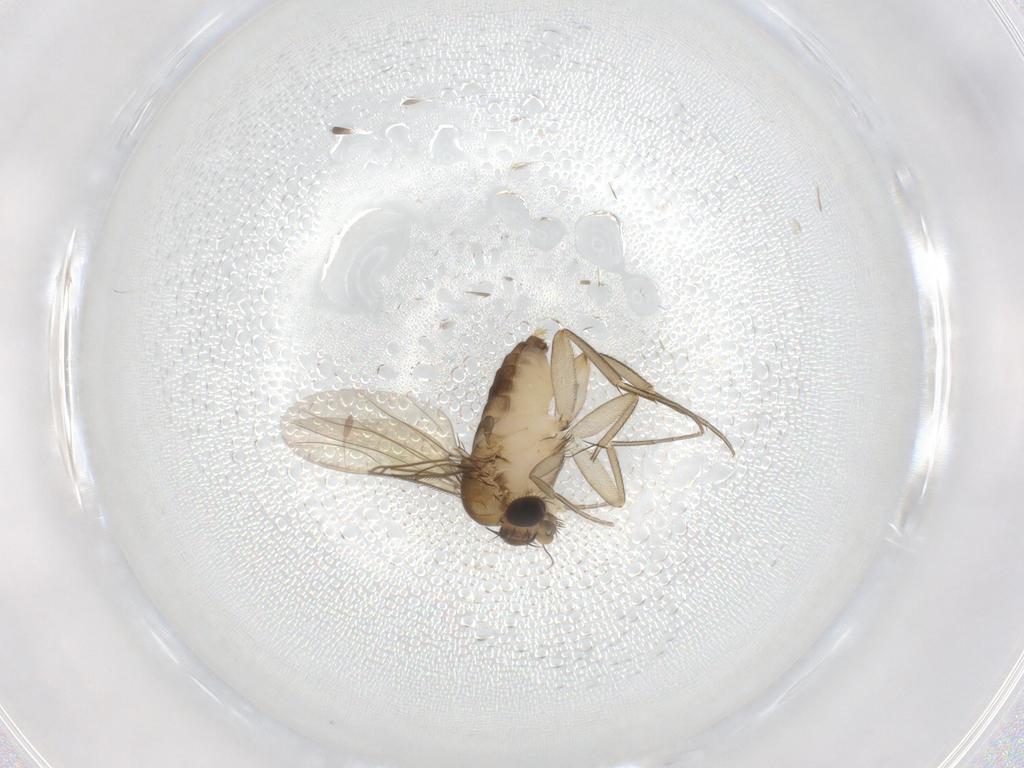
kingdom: Animalia
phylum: Arthropoda
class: Insecta
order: Diptera
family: Phoridae
